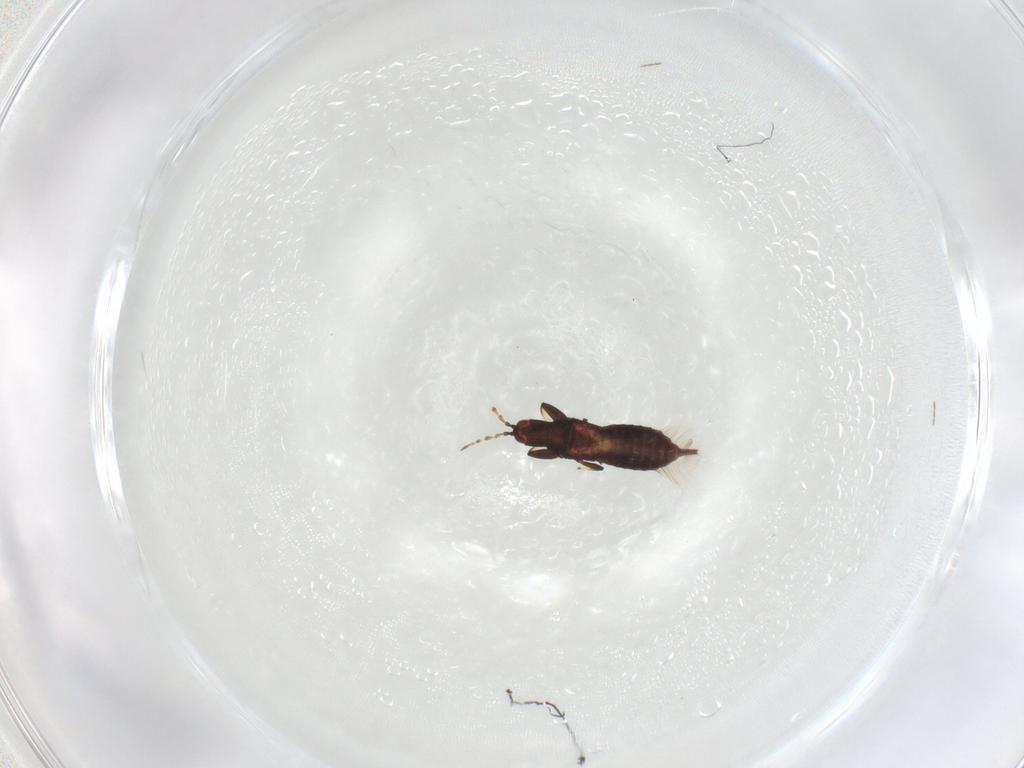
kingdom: Animalia
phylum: Arthropoda
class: Insecta
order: Thysanoptera
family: Phlaeothripidae
